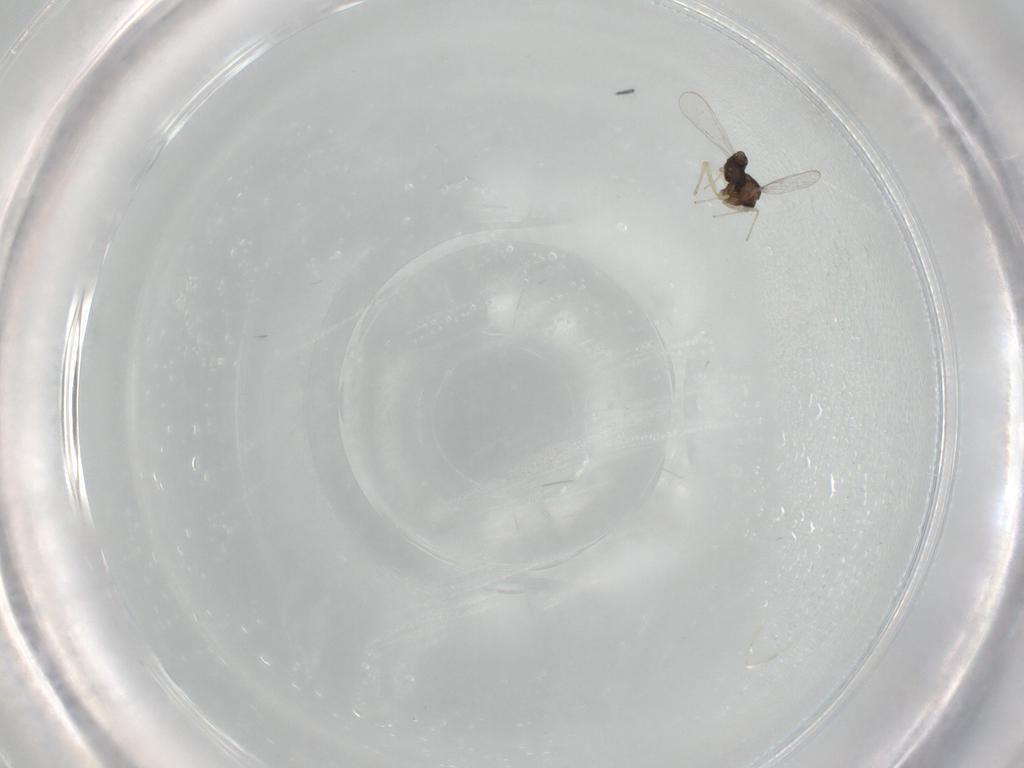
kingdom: Animalia
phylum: Arthropoda
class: Insecta
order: Diptera
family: Chironomidae
